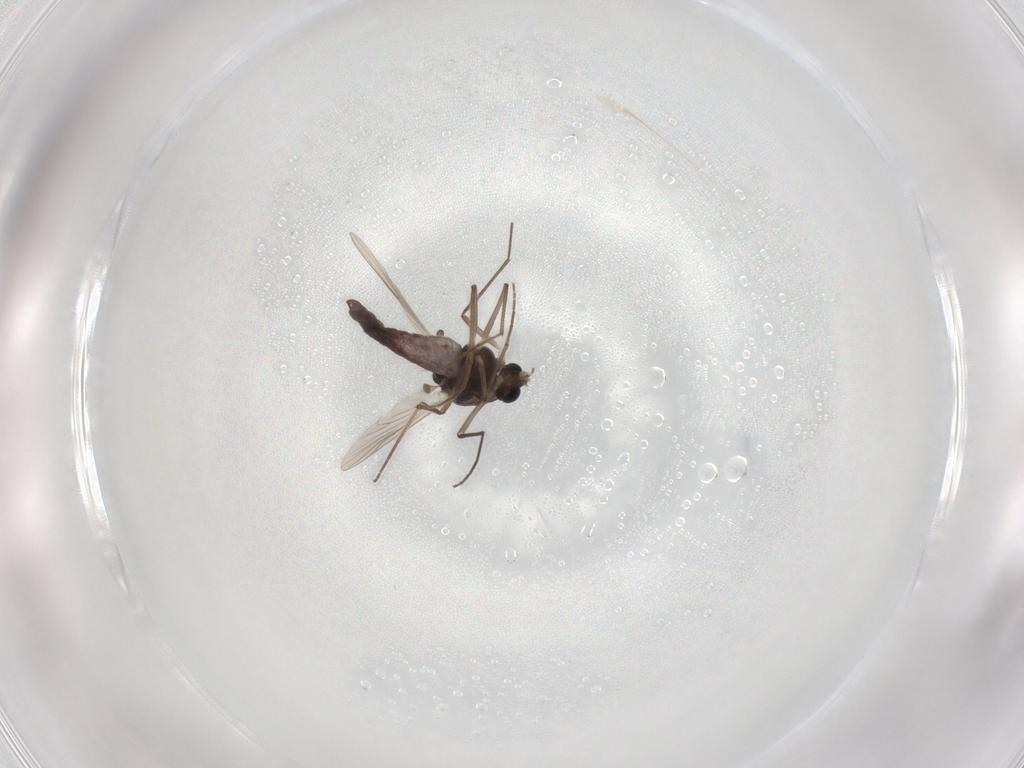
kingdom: Animalia
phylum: Arthropoda
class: Insecta
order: Diptera
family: Chironomidae
